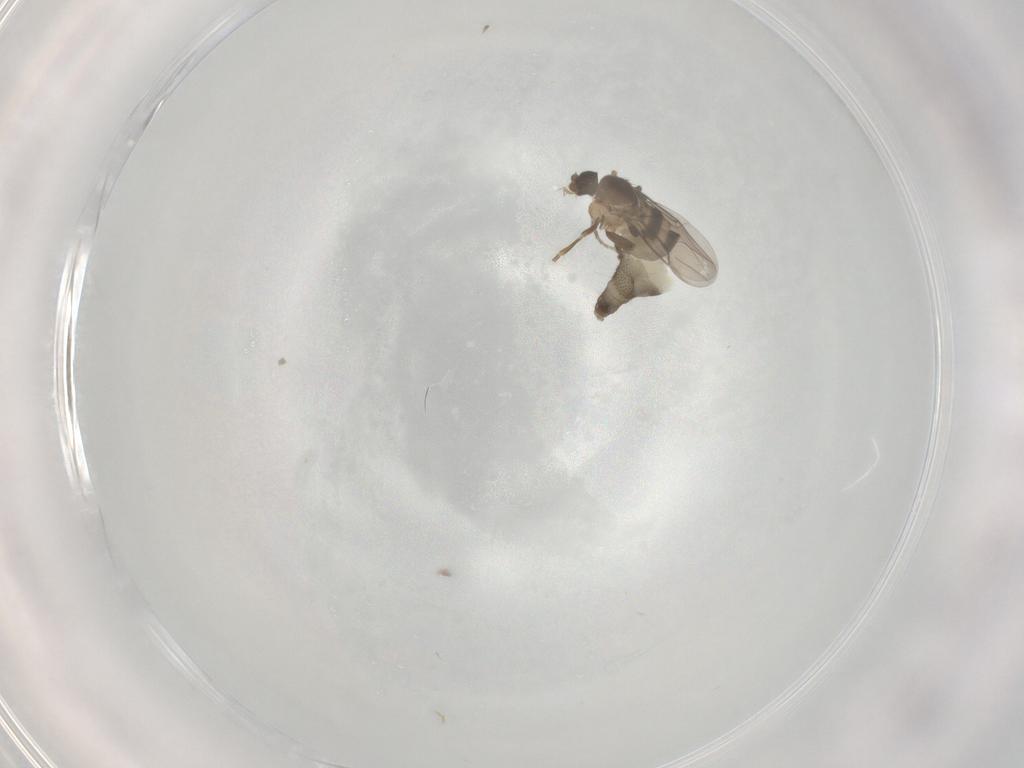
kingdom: Animalia
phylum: Arthropoda
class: Insecta
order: Diptera
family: Phoridae
